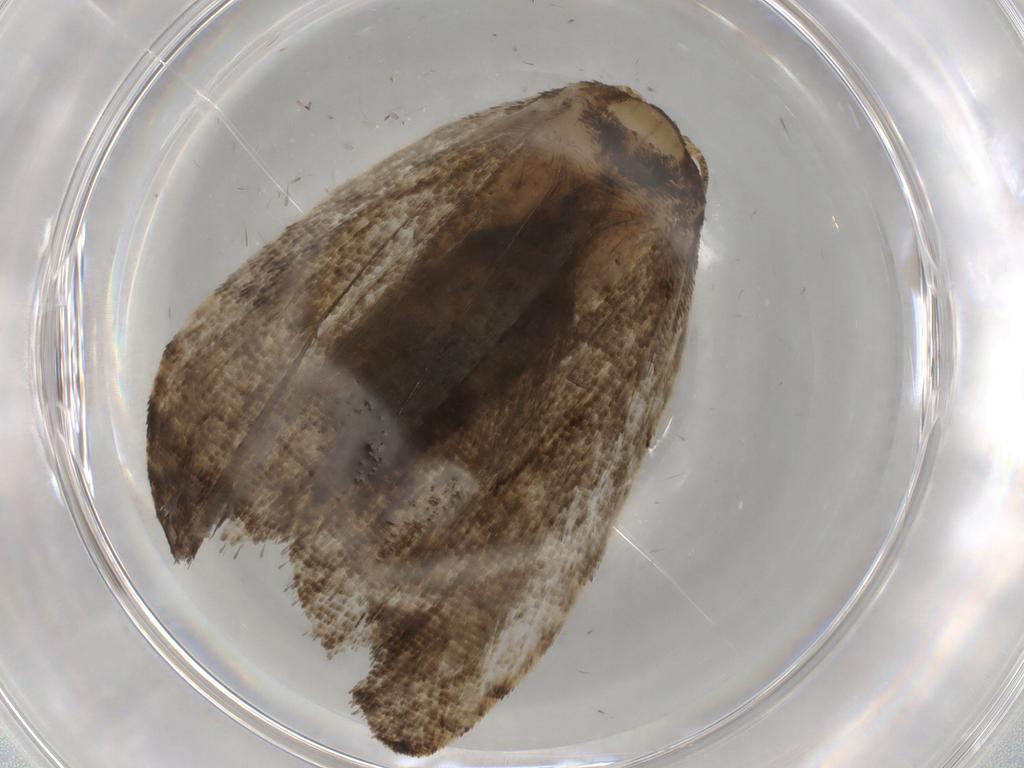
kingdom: Animalia
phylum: Arthropoda
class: Insecta
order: Lepidoptera
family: Tortricidae
